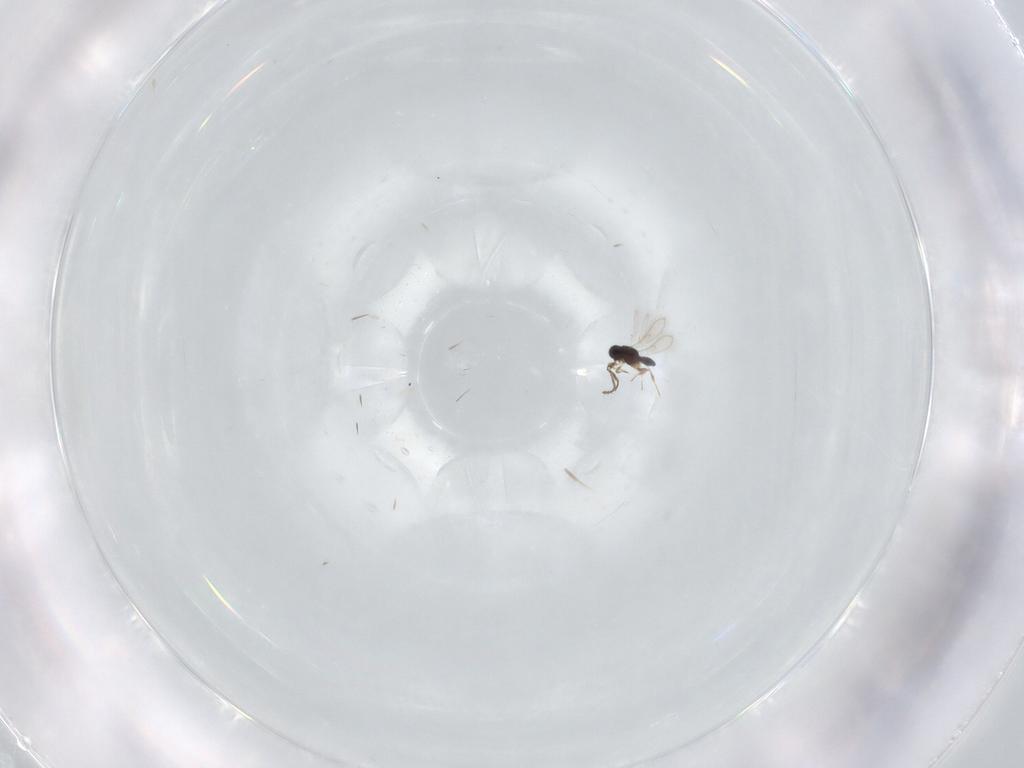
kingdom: Animalia
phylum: Arthropoda
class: Insecta
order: Hymenoptera
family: Scelionidae
